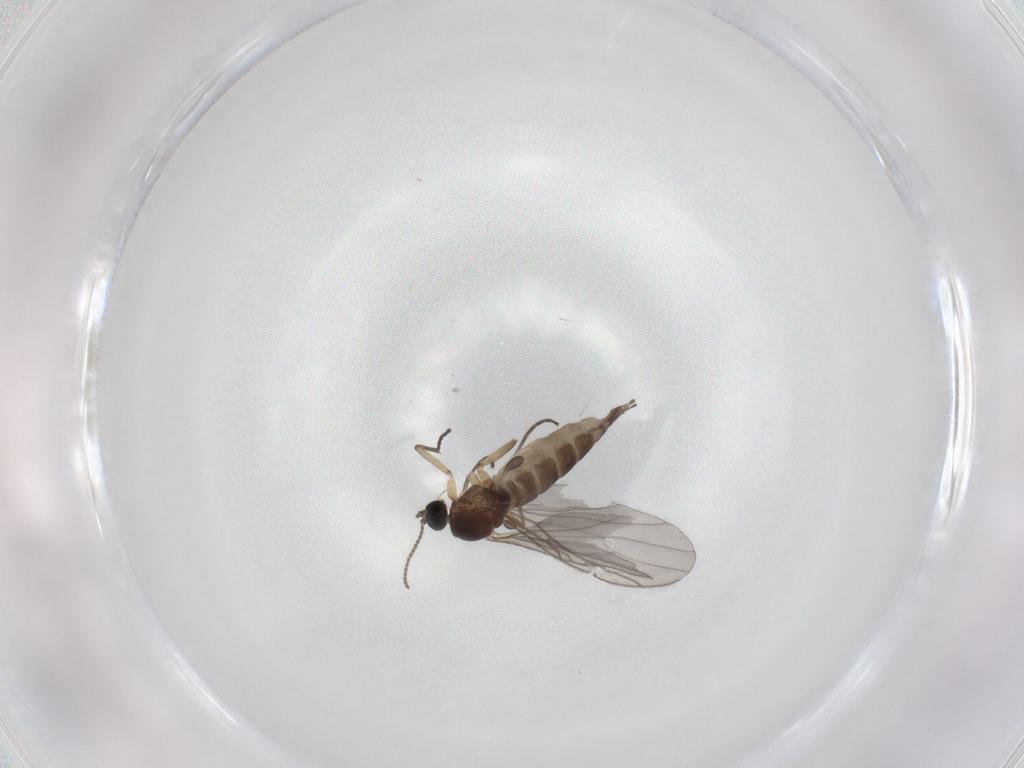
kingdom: Animalia
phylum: Arthropoda
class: Insecta
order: Diptera
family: Sciaridae
